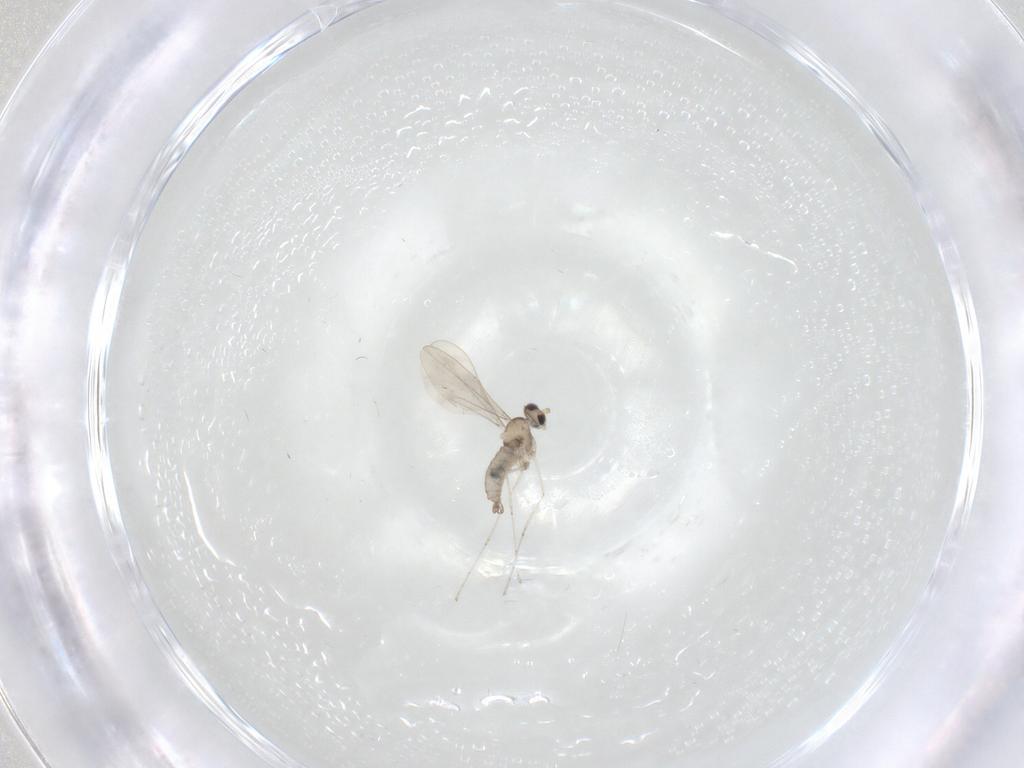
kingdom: Animalia
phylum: Arthropoda
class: Insecta
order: Diptera
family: Cecidomyiidae
